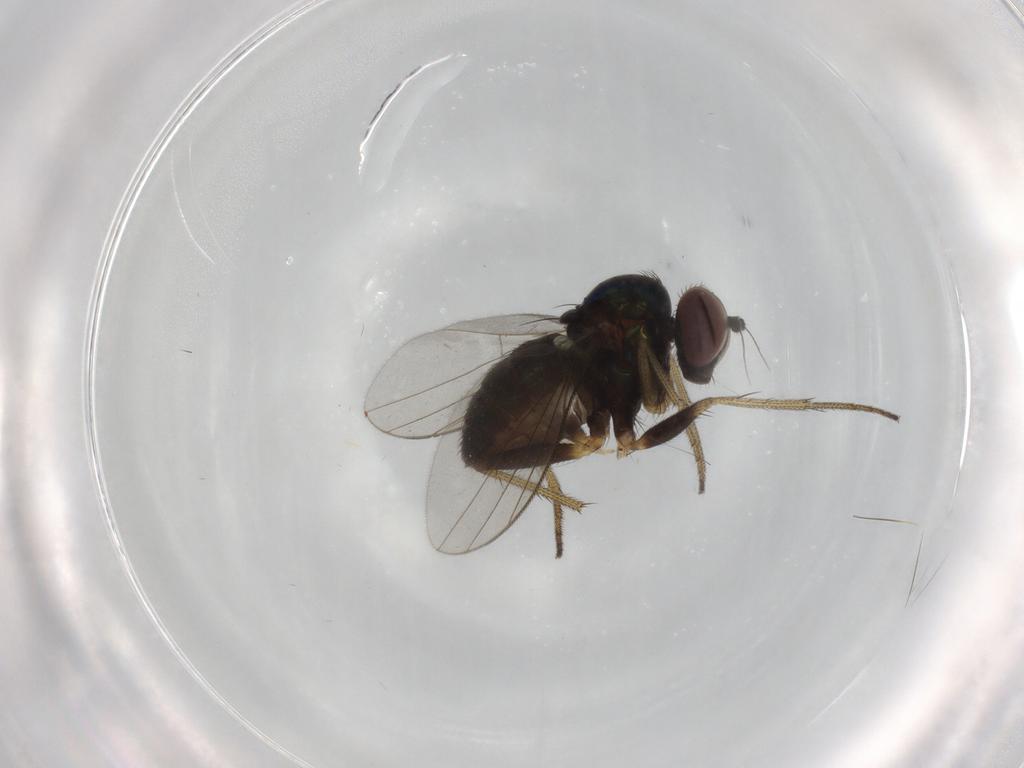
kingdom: Animalia
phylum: Arthropoda
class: Insecta
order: Diptera
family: Chironomidae
